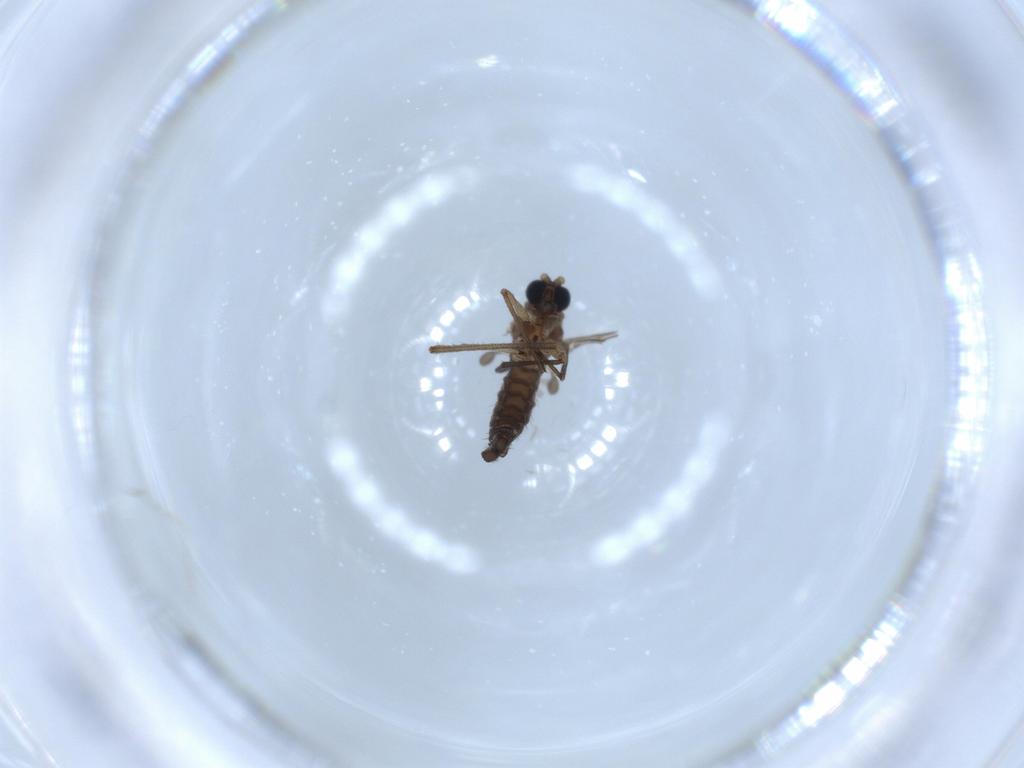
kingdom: Animalia
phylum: Arthropoda
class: Insecta
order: Diptera
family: Sciaridae
